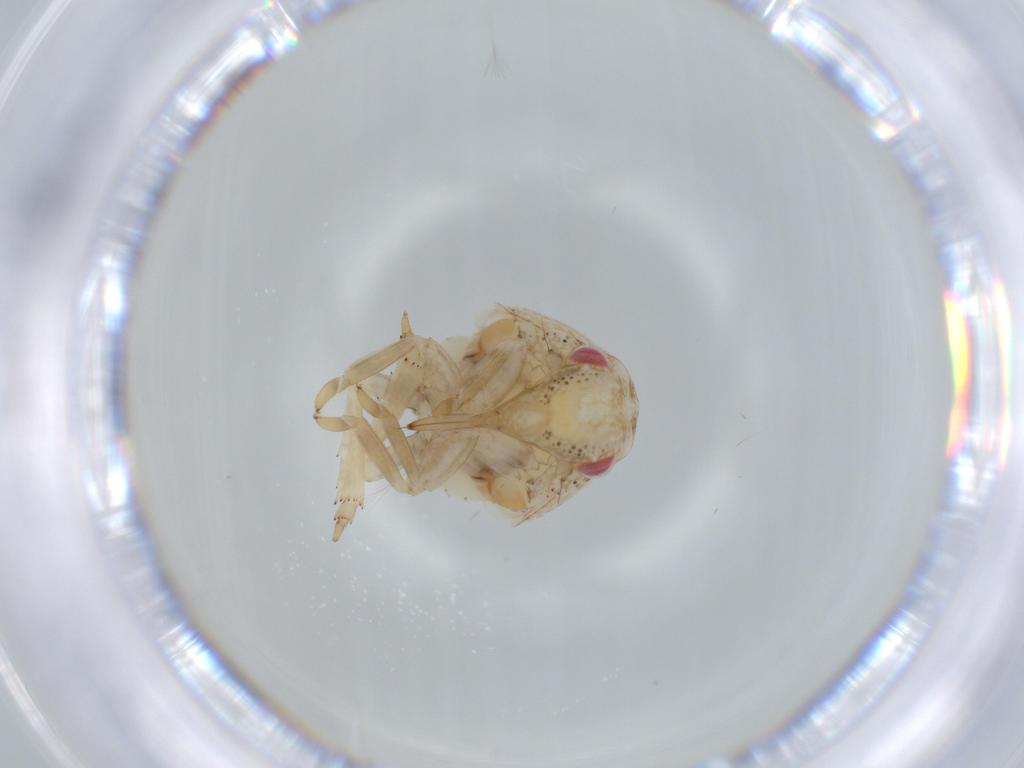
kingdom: Animalia
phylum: Arthropoda
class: Insecta
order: Hemiptera
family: Acanaloniidae
